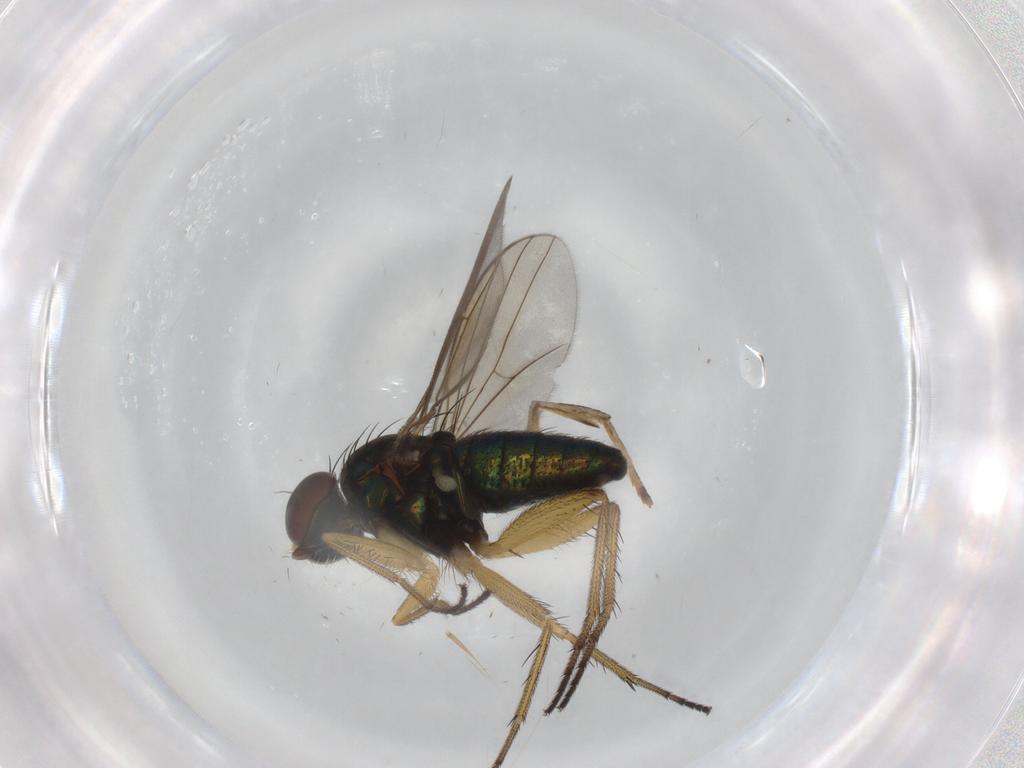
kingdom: Animalia
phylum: Arthropoda
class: Insecta
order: Diptera
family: Dolichopodidae
